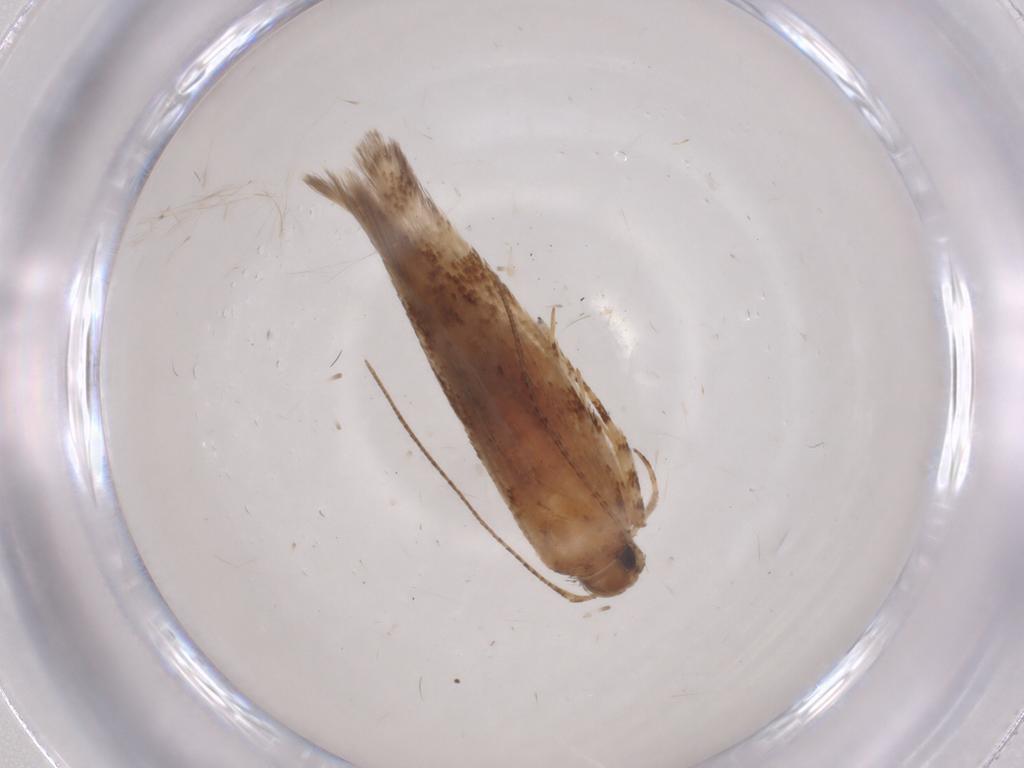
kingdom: Animalia
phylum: Arthropoda
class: Insecta
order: Lepidoptera
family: Gelechiidae
